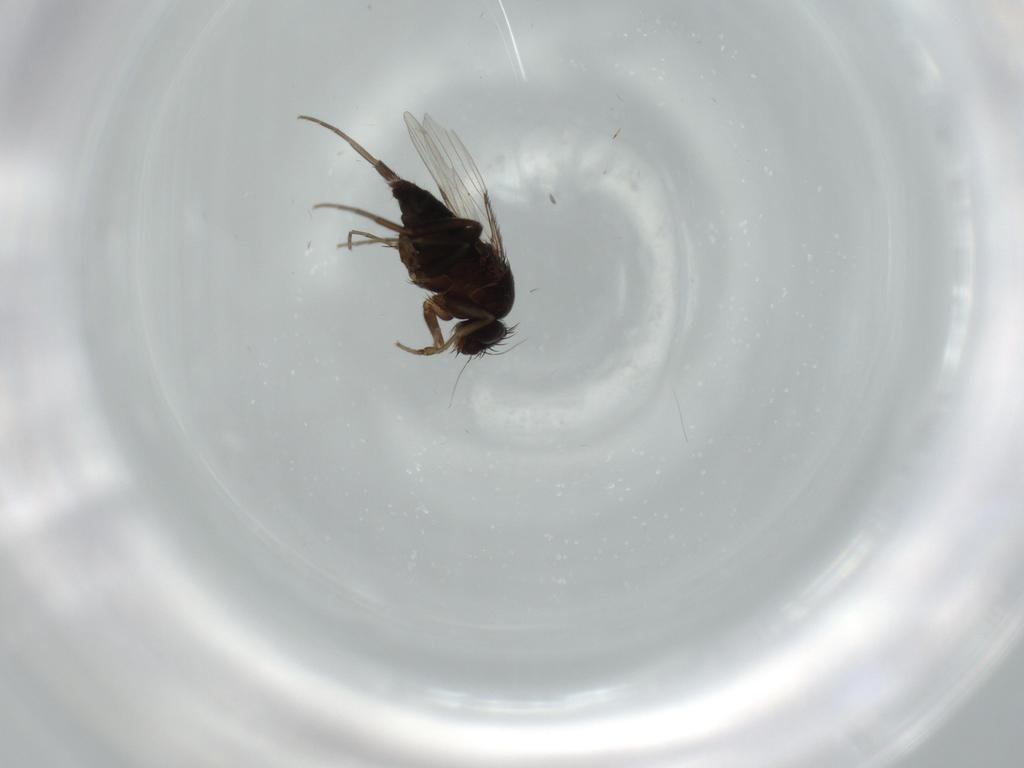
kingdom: Animalia
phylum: Arthropoda
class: Insecta
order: Diptera
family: Phoridae
